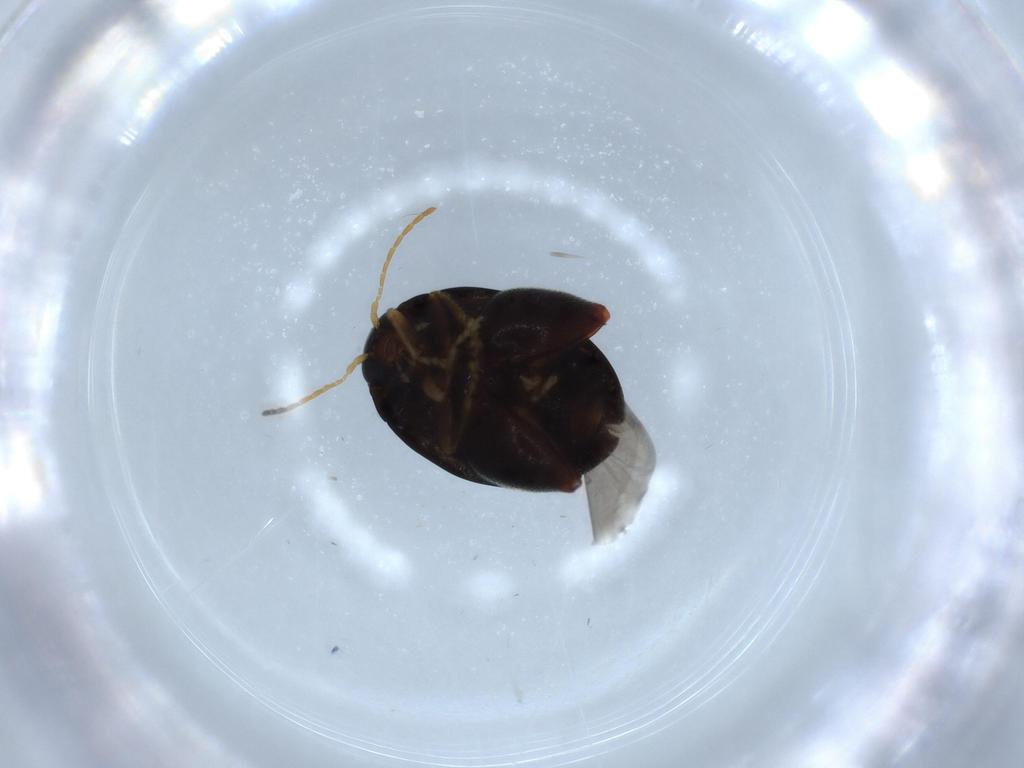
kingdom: Animalia
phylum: Arthropoda
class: Insecta
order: Coleoptera
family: Chrysomelidae
